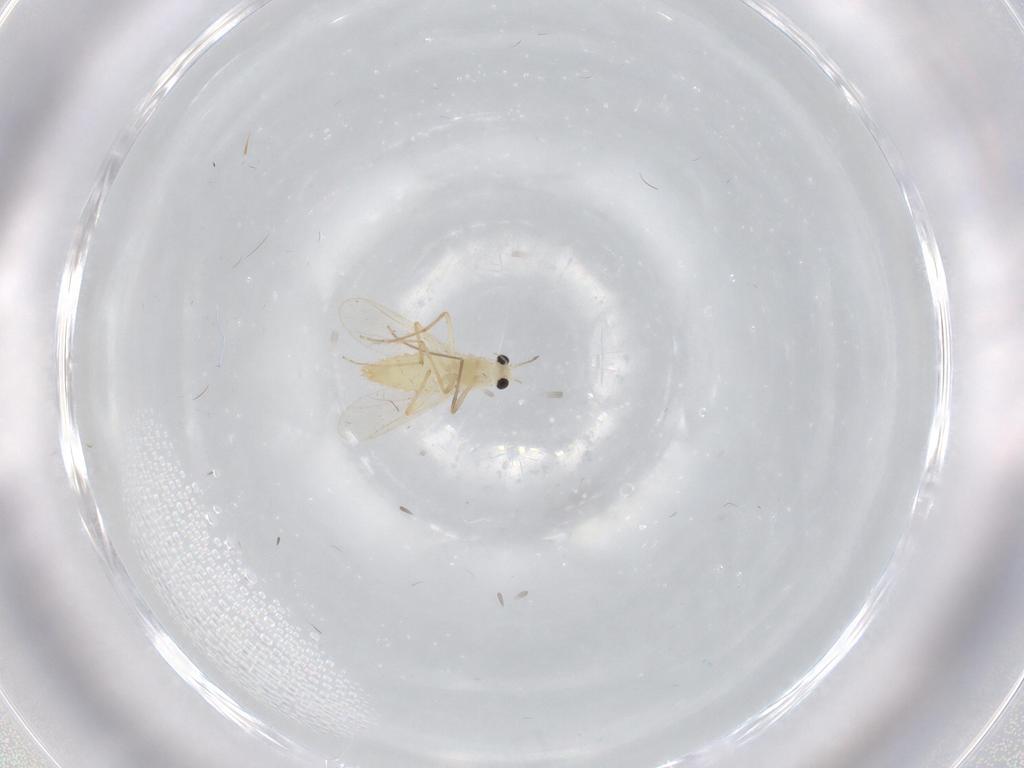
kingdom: Animalia
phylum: Arthropoda
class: Insecta
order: Diptera
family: Chironomidae
